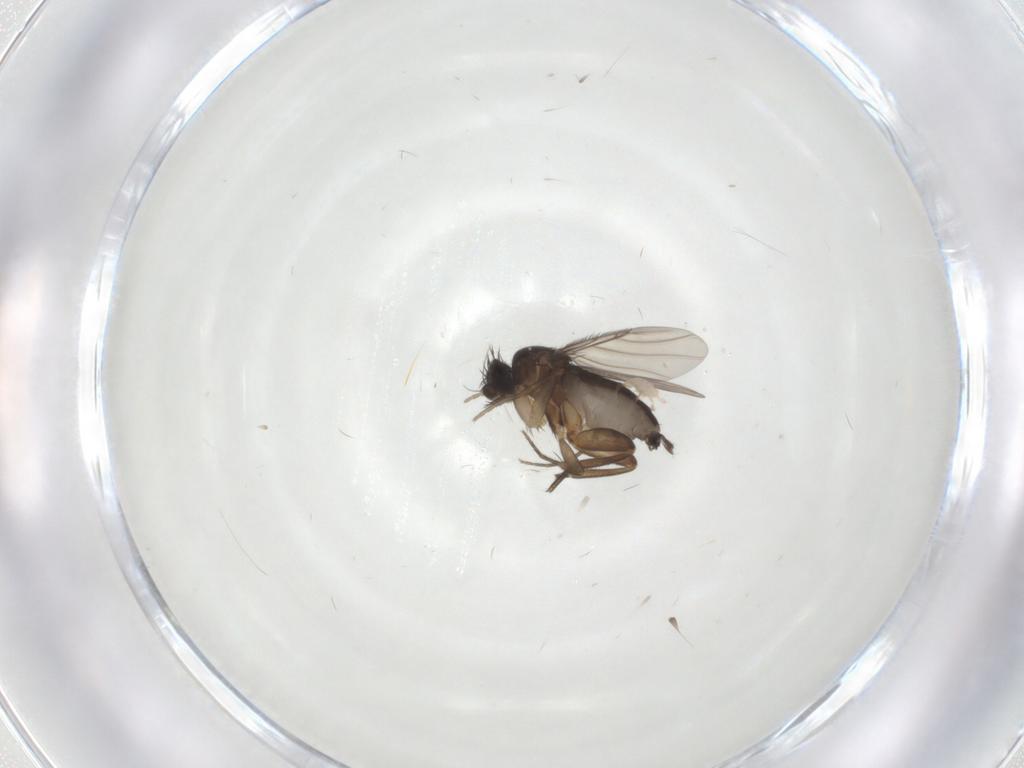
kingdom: Animalia
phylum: Arthropoda
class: Insecta
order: Diptera
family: Phoridae
